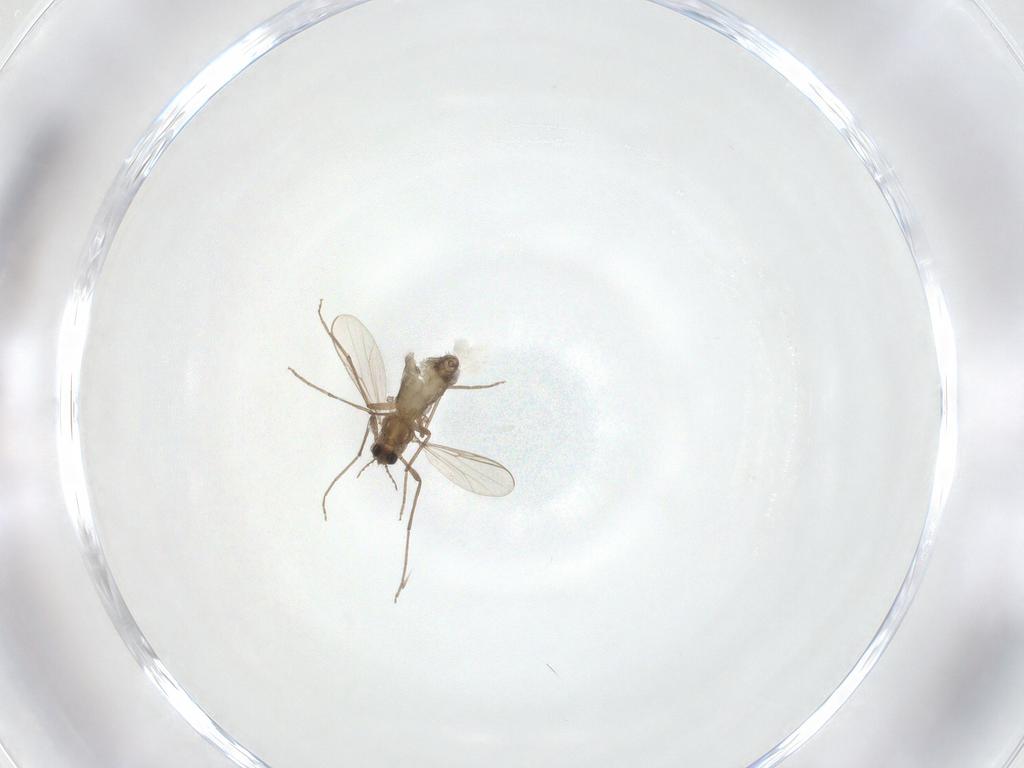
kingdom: Animalia
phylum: Arthropoda
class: Insecta
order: Diptera
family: Chironomidae
